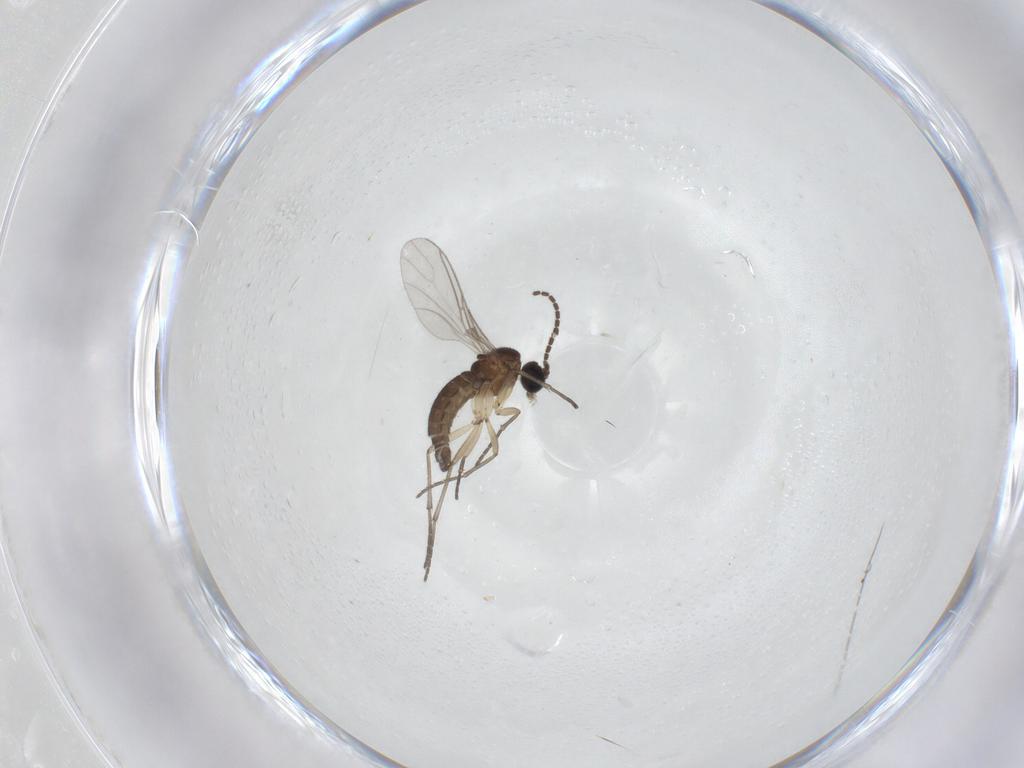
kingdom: Animalia
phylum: Arthropoda
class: Insecta
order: Diptera
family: Sciaridae
